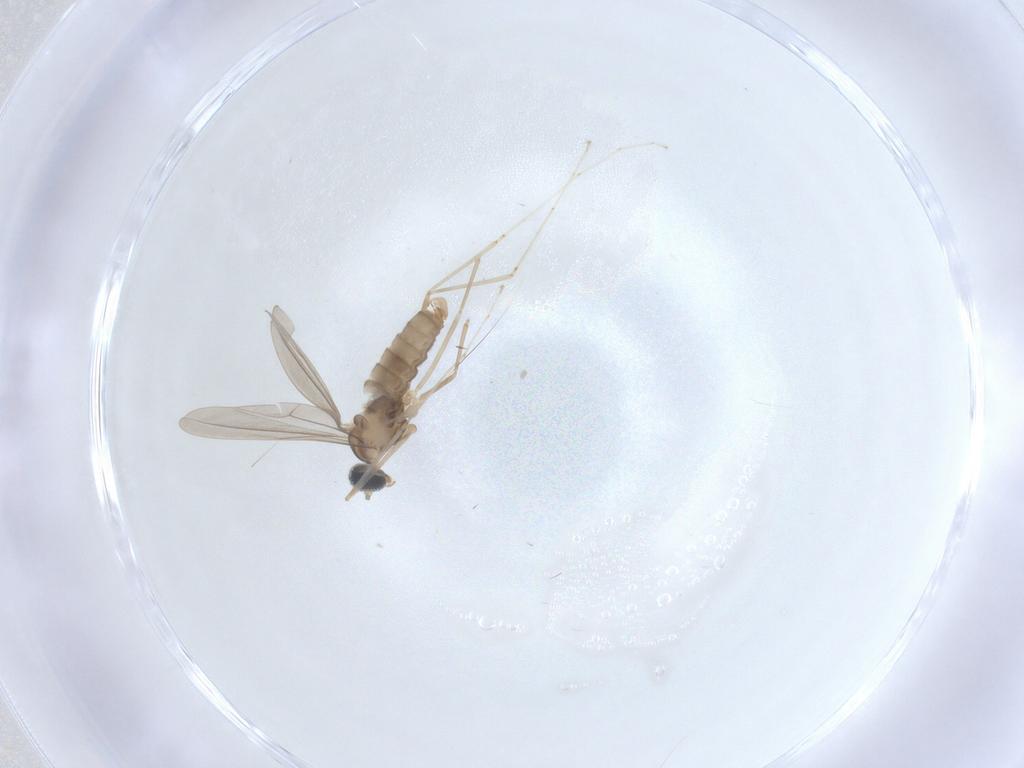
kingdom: Animalia
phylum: Arthropoda
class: Insecta
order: Diptera
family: Cecidomyiidae
